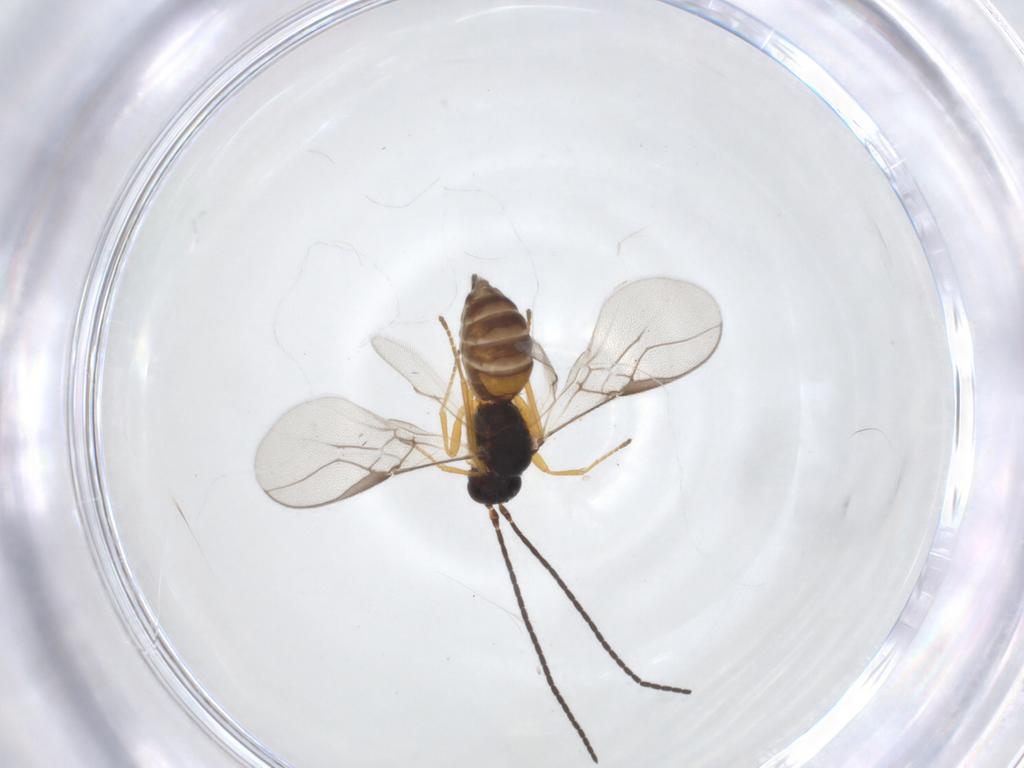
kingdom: Animalia
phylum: Arthropoda
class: Insecta
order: Hymenoptera
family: Braconidae
